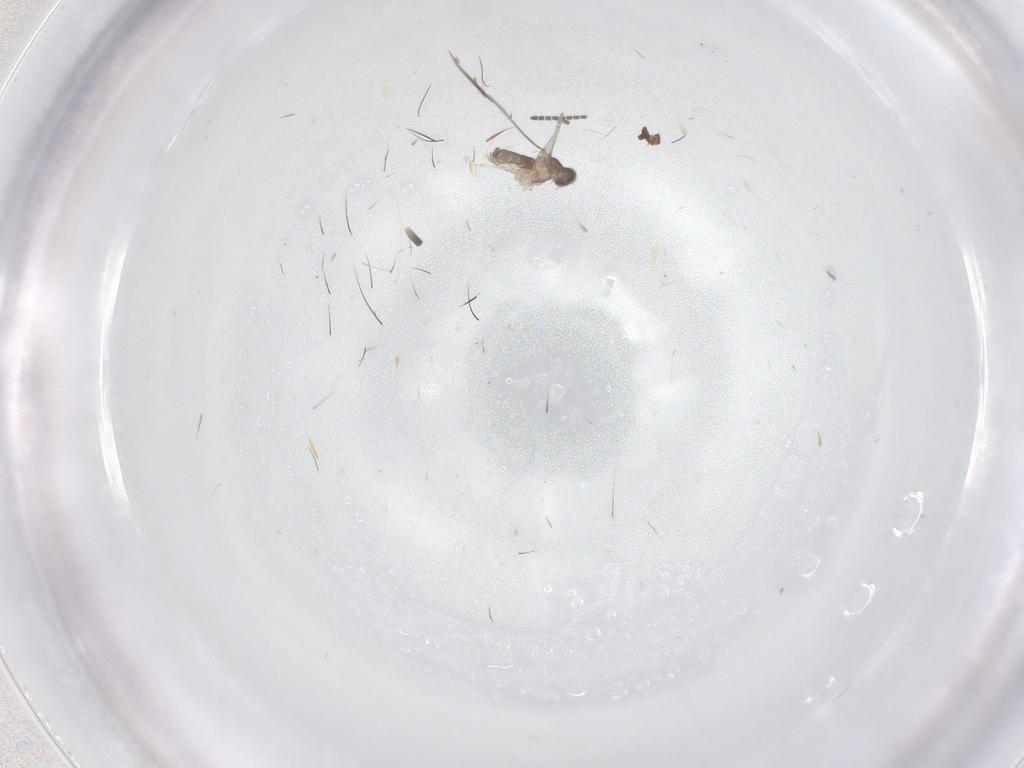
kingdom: Animalia
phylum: Arthropoda
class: Insecta
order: Diptera
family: Cecidomyiidae
